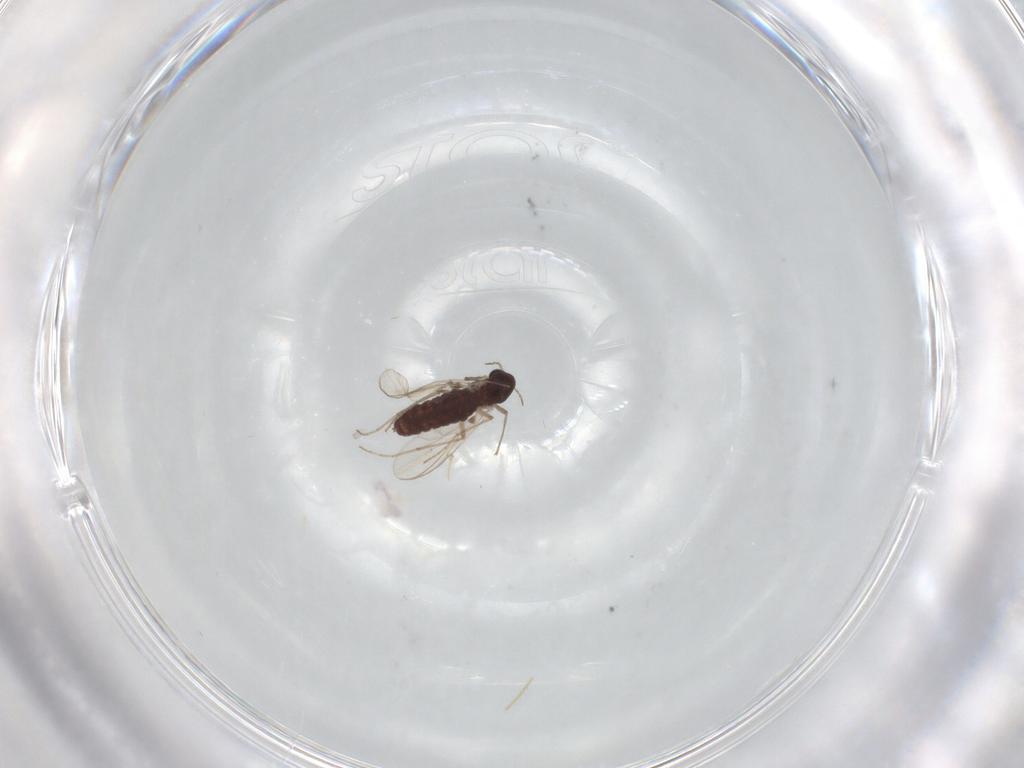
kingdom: Animalia
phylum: Arthropoda
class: Insecta
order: Diptera
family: Chironomidae
